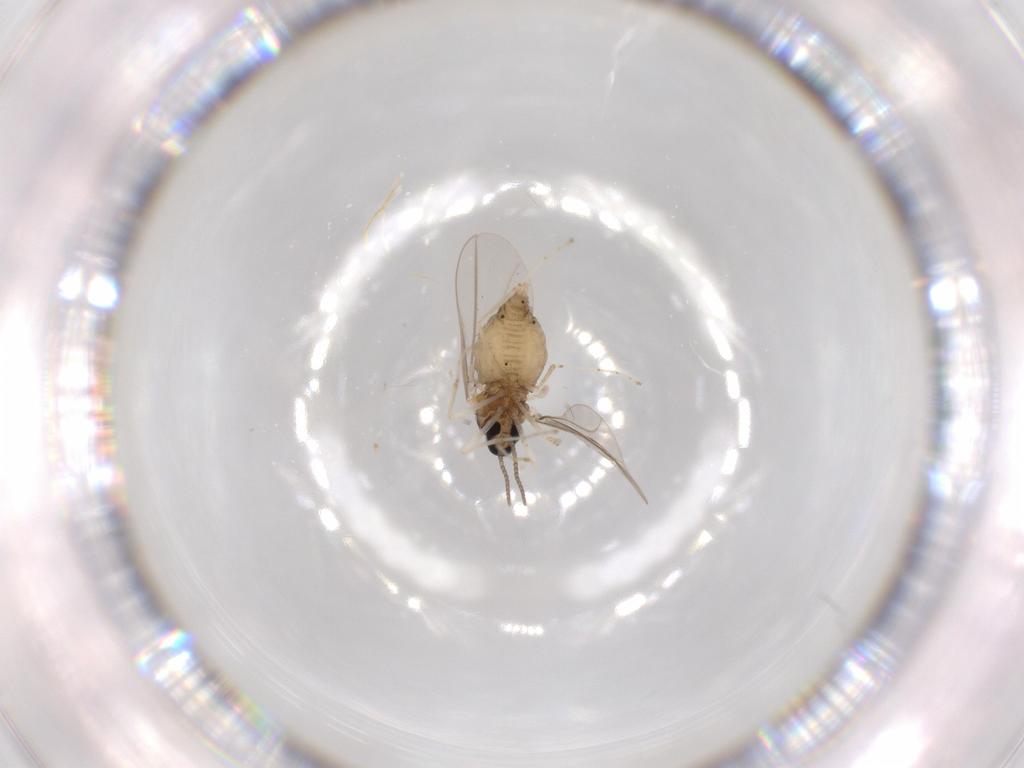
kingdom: Animalia
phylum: Arthropoda
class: Insecta
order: Diptera
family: Cecidomyiidae
